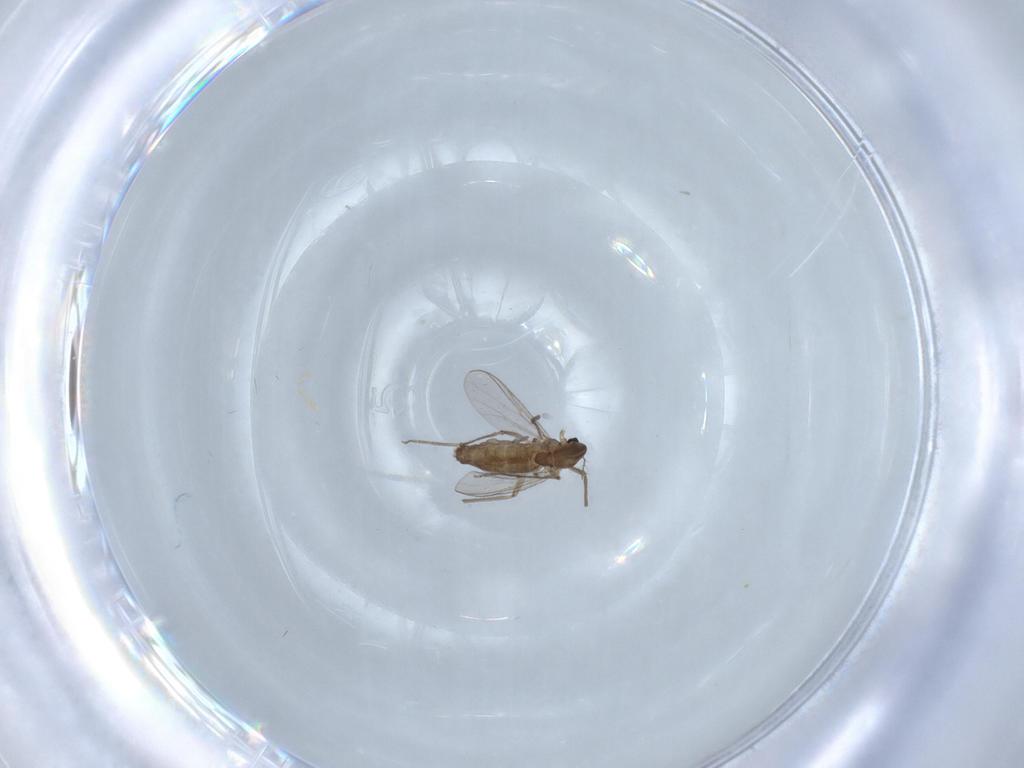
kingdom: Animalia
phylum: Arthropoda
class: Insecta
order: Diptera
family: Chironomidae
